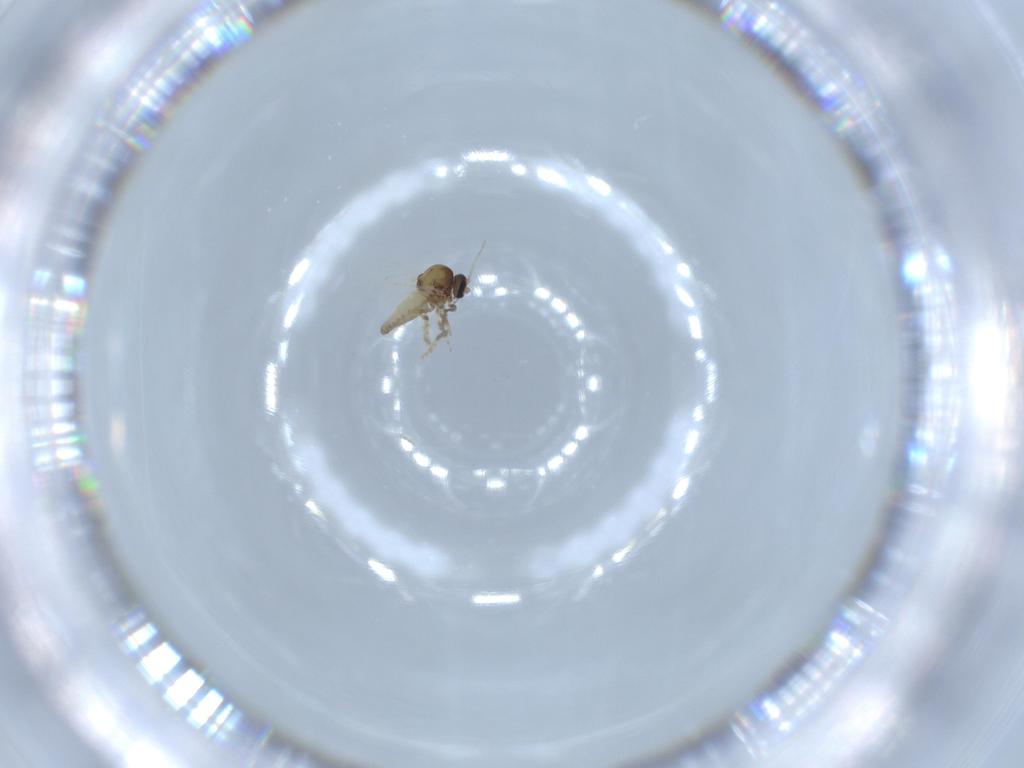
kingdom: Animalia
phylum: Arthropoda
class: Insecta
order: Diptera
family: Ceratopogonidae
